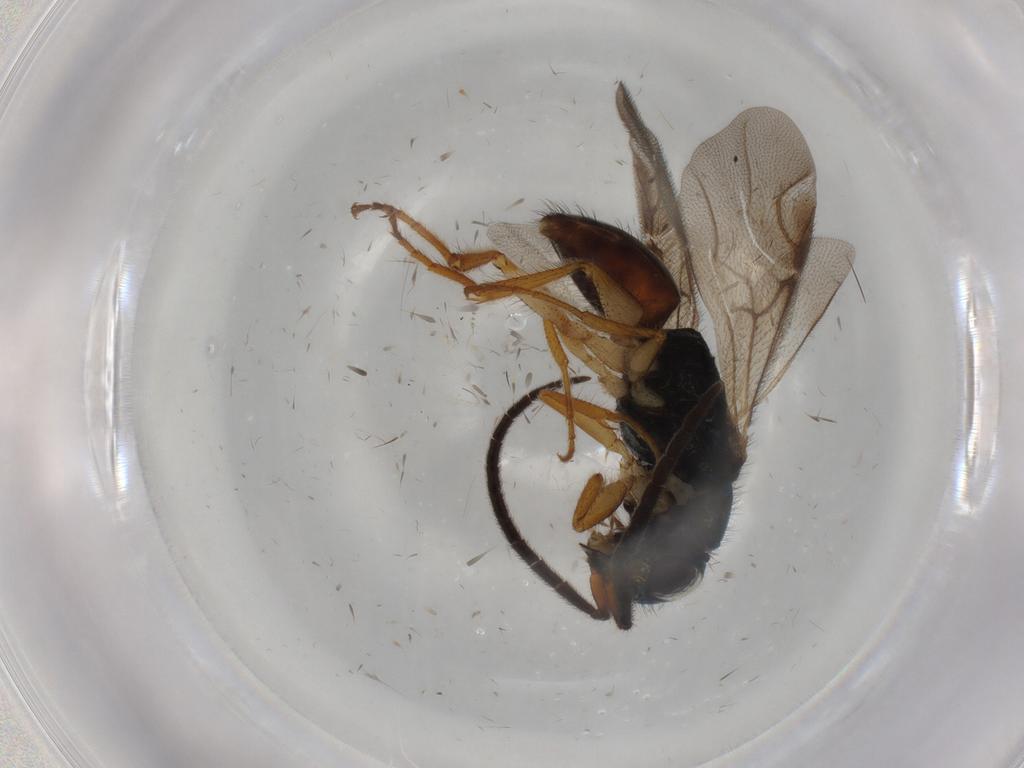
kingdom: Animalia
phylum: Arthropoda
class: Insecta
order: Hymenoptera
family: Chrysididae
